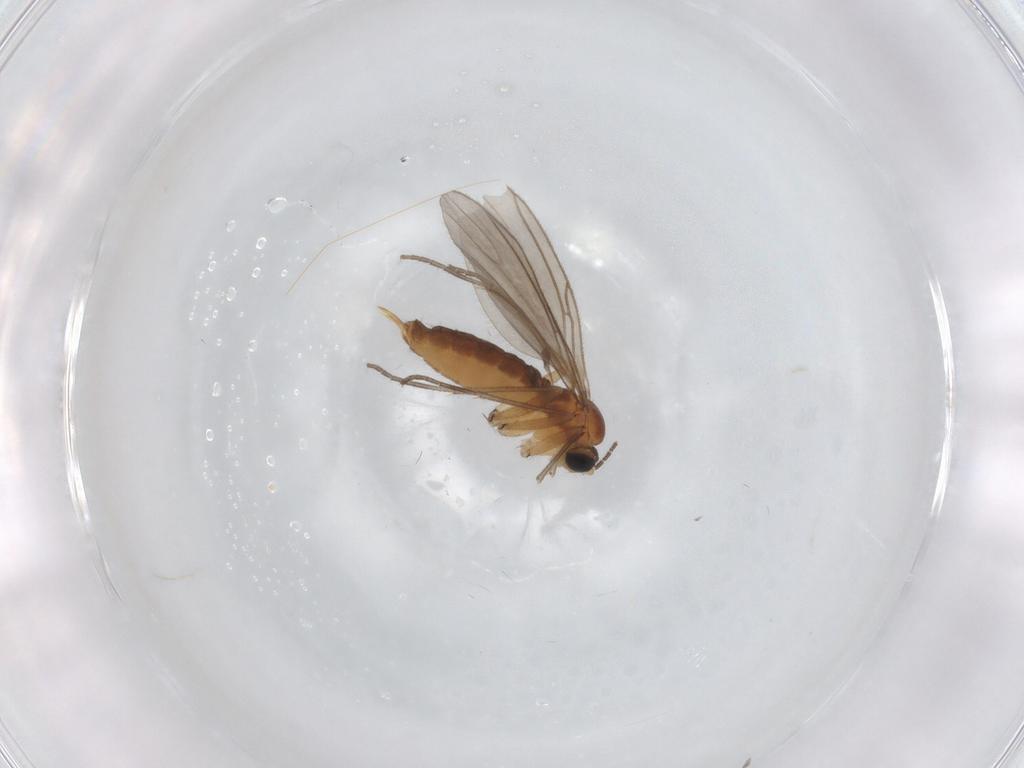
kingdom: Animalia
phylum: Arthropoda
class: Insecta
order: Diptera
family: Sciaridae
